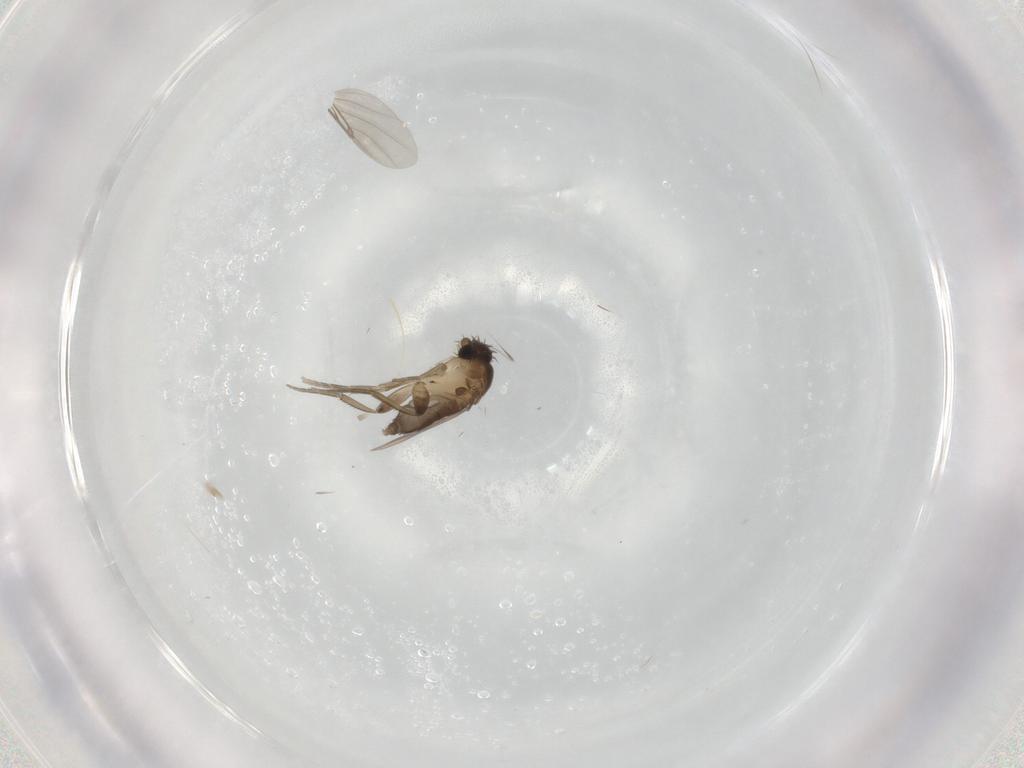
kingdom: Animalia
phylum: Arthropoda
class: Insecta
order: Diptera
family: Phoridae
